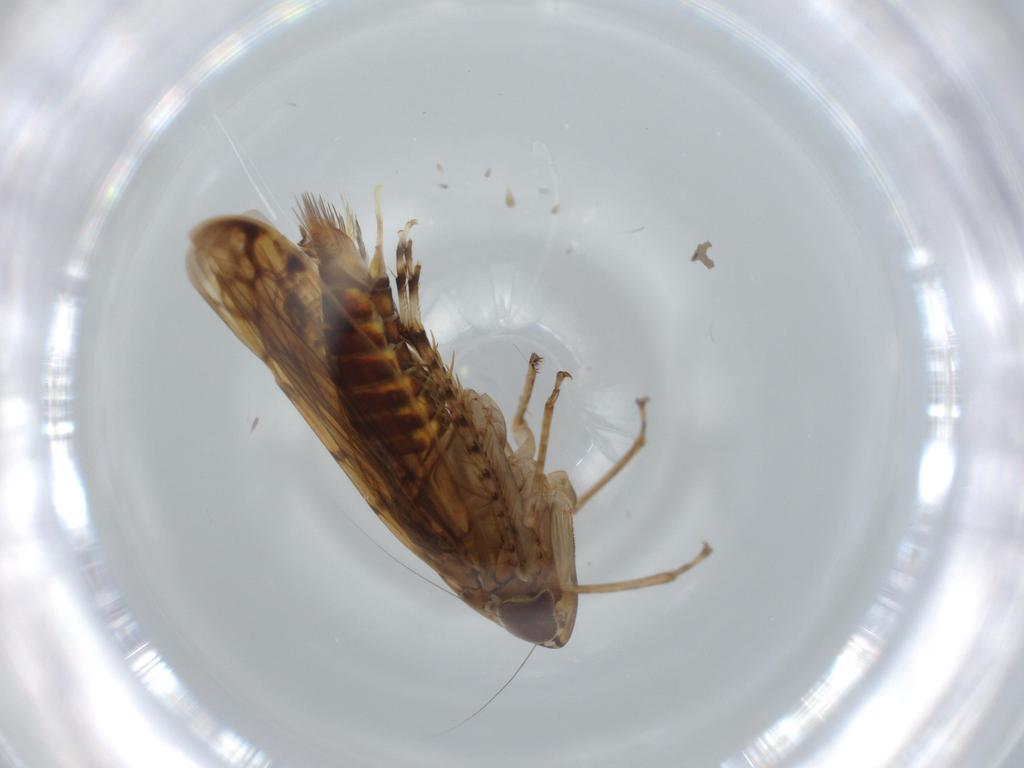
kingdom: Animalia
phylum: Arthropoda
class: Insecta
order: Hemiptera
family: Cicadellidae
